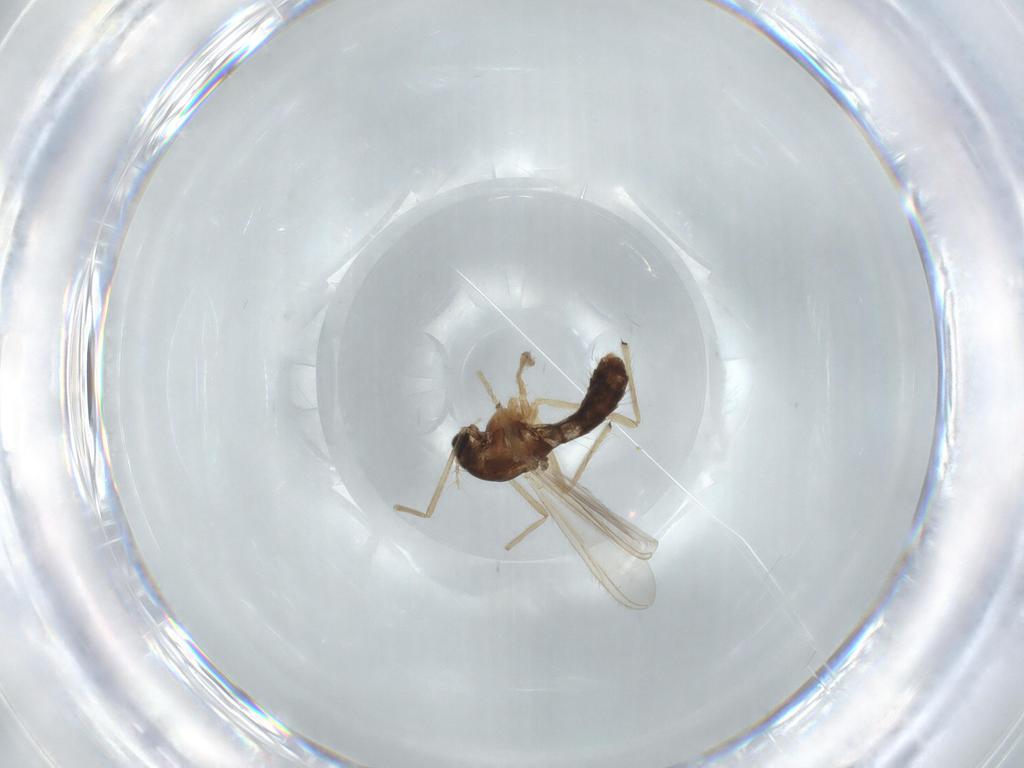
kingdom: Animalia
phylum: Arthropoda
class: Insecta
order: Diptera
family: Chironomidae
